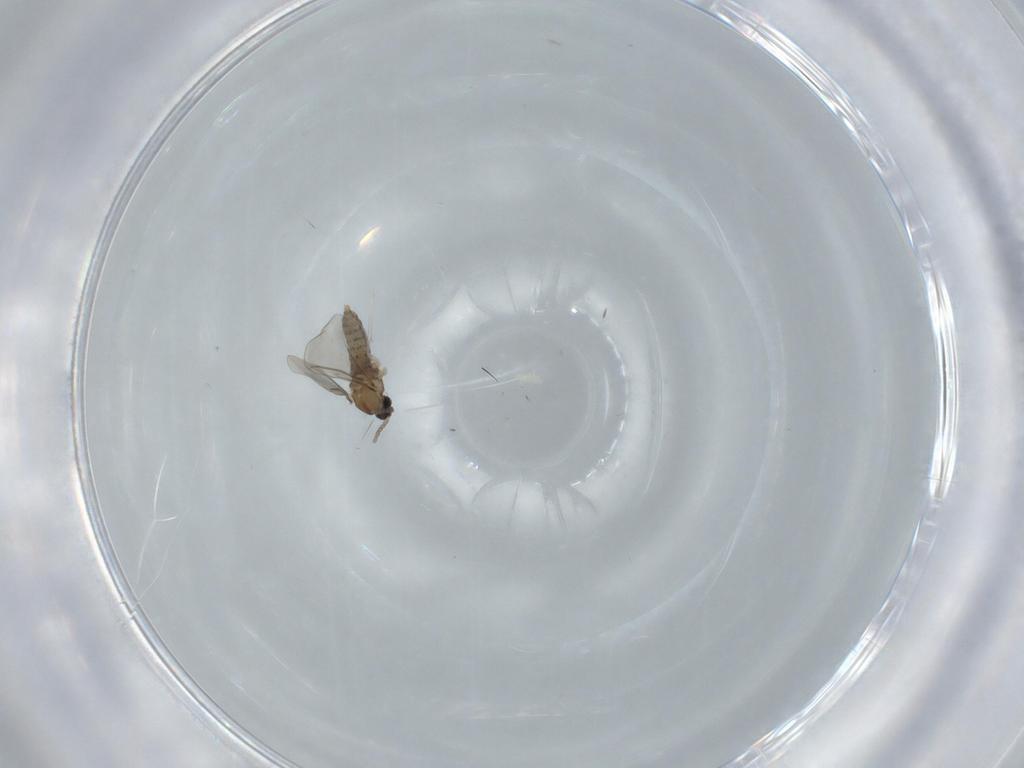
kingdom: Animalia
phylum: Arthropoda
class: Insecta
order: Diptera
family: Cecidomyiidae
